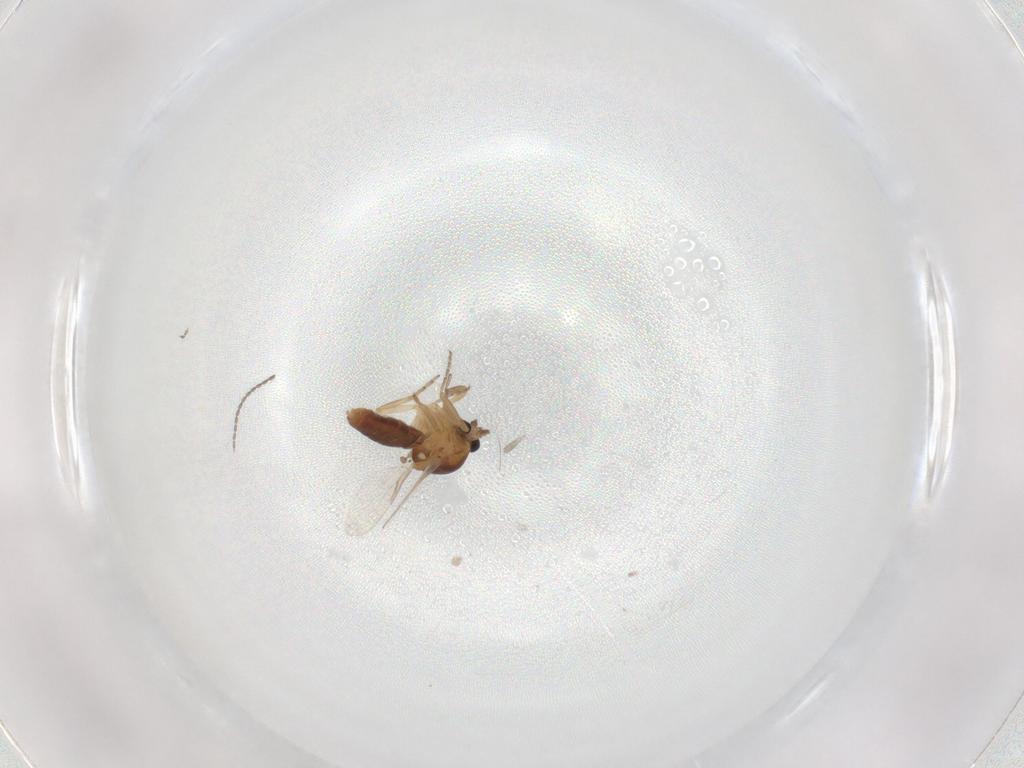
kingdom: Animalia
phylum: Arthropoda
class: Insecta
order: Diptera
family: Ceratopogonidae
